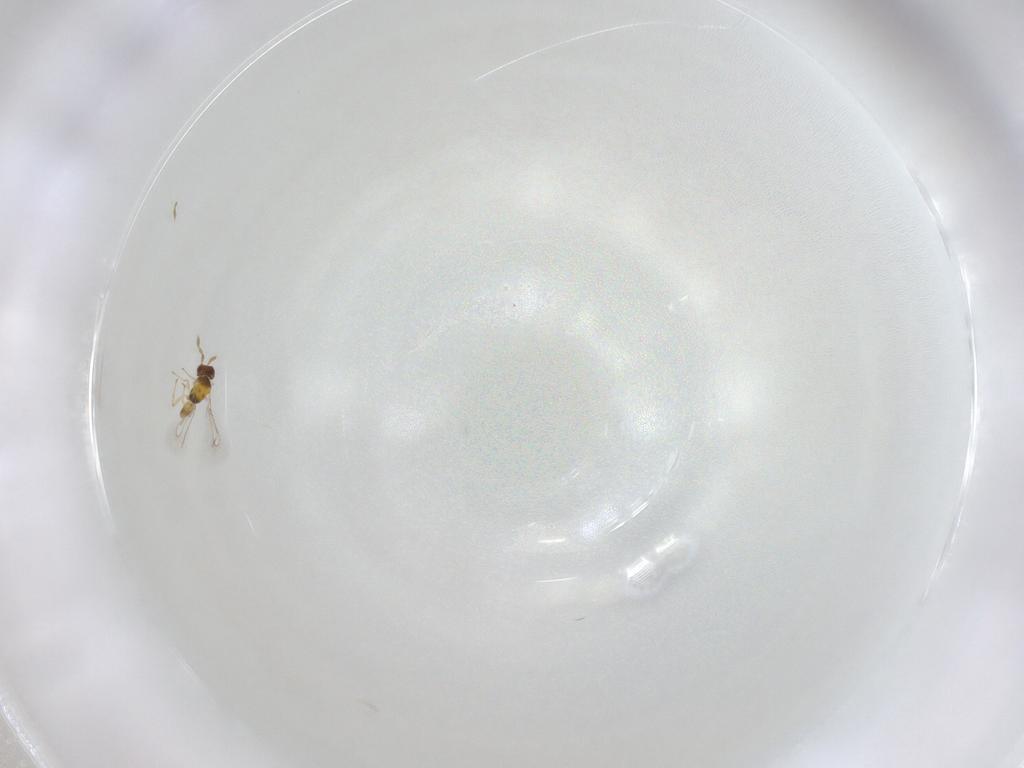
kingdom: Animalia
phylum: Arthropoda
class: Insecta
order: Hymenoptera
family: Eulophidae
